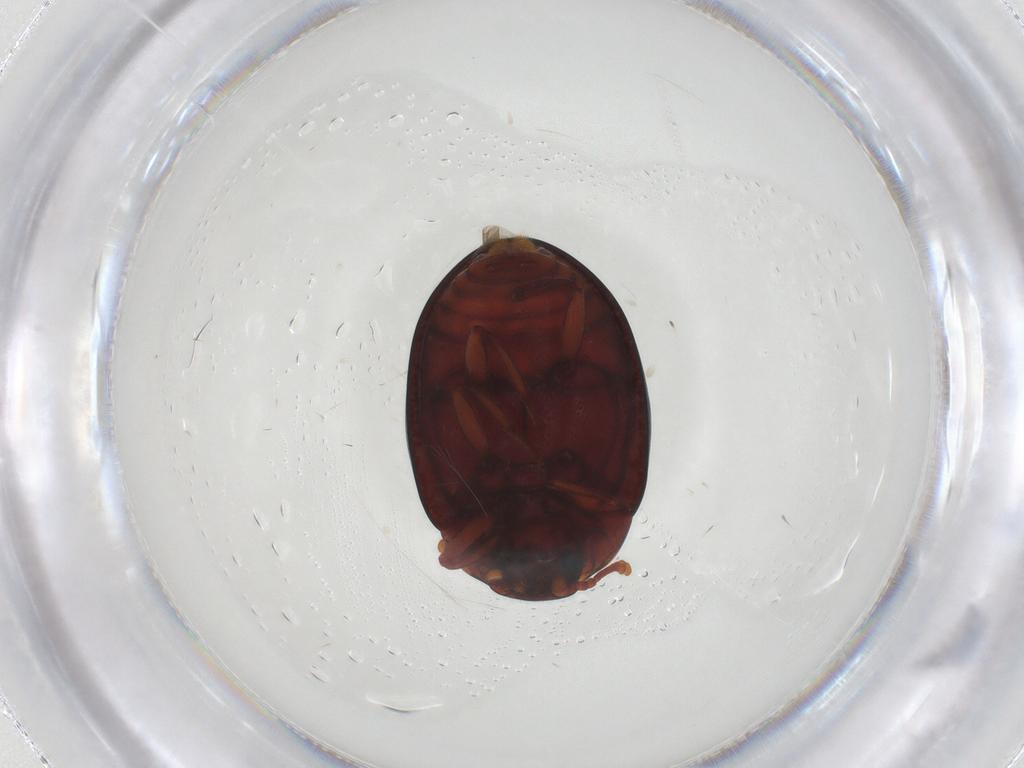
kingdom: Animalia
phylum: Arthropoda
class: Insecta
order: Coleoptera
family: Zopheridae
